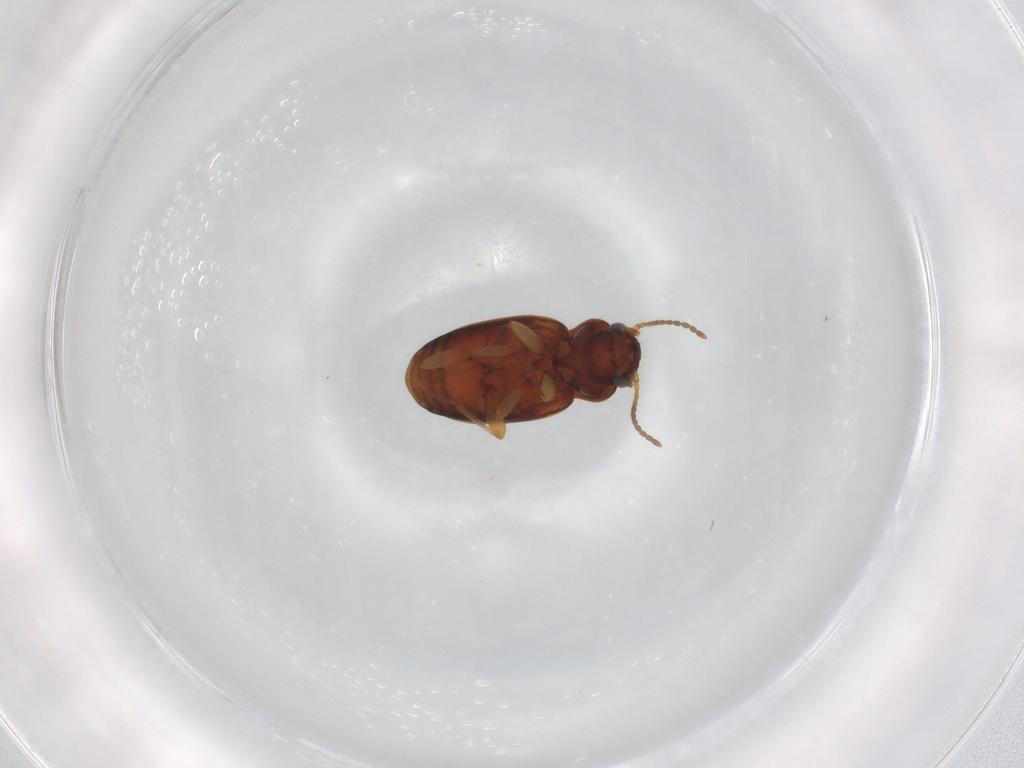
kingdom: Animalia
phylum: Arthropoda
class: Insecta
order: Coleoptera
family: Carabidae
